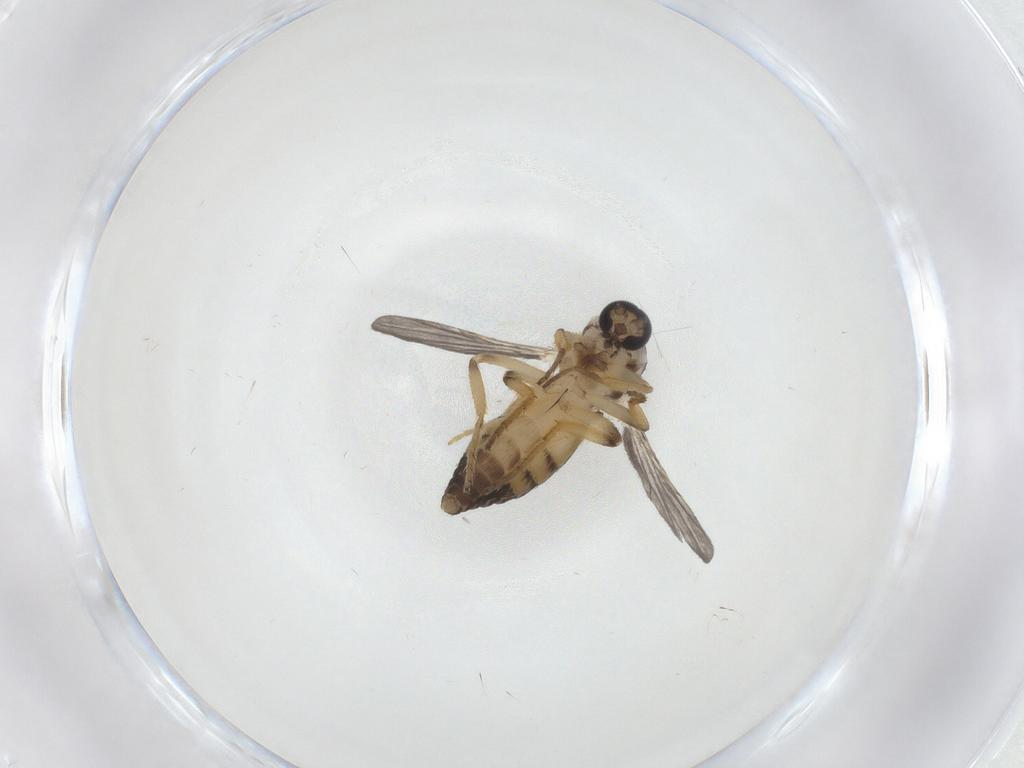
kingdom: Animalia
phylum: Arthropoda
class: Insecta
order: Diptera
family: Ceratopogonidae
